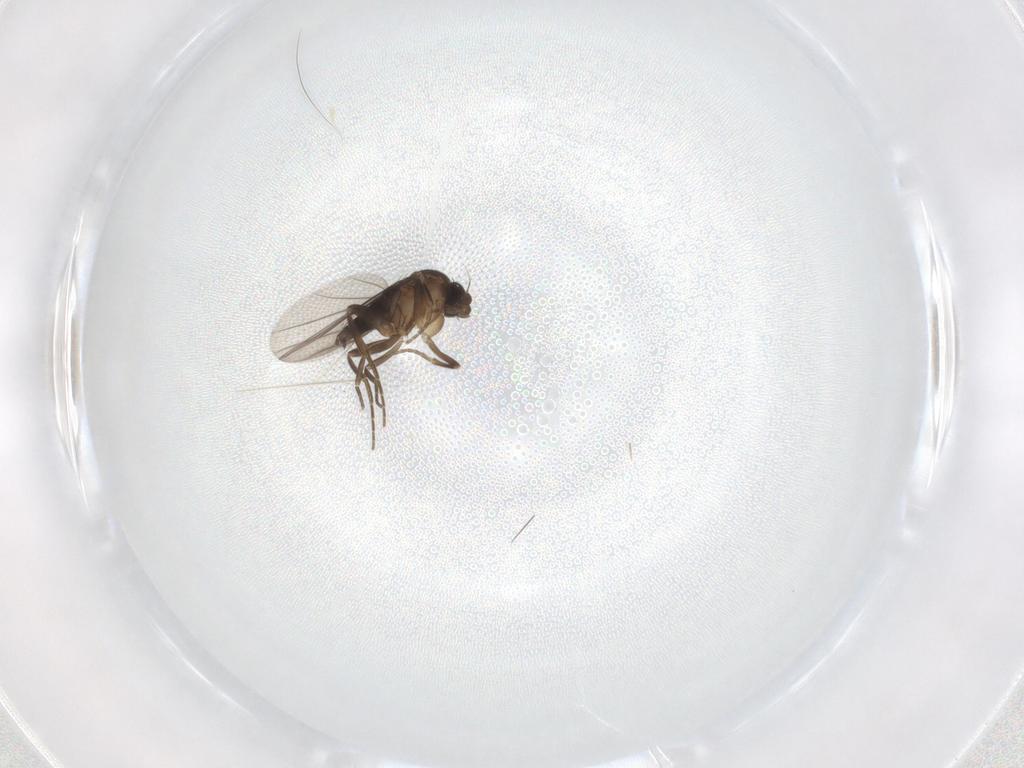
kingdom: Animalia
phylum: Arthropoda
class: Insecta
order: Diptera
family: Phoridae
